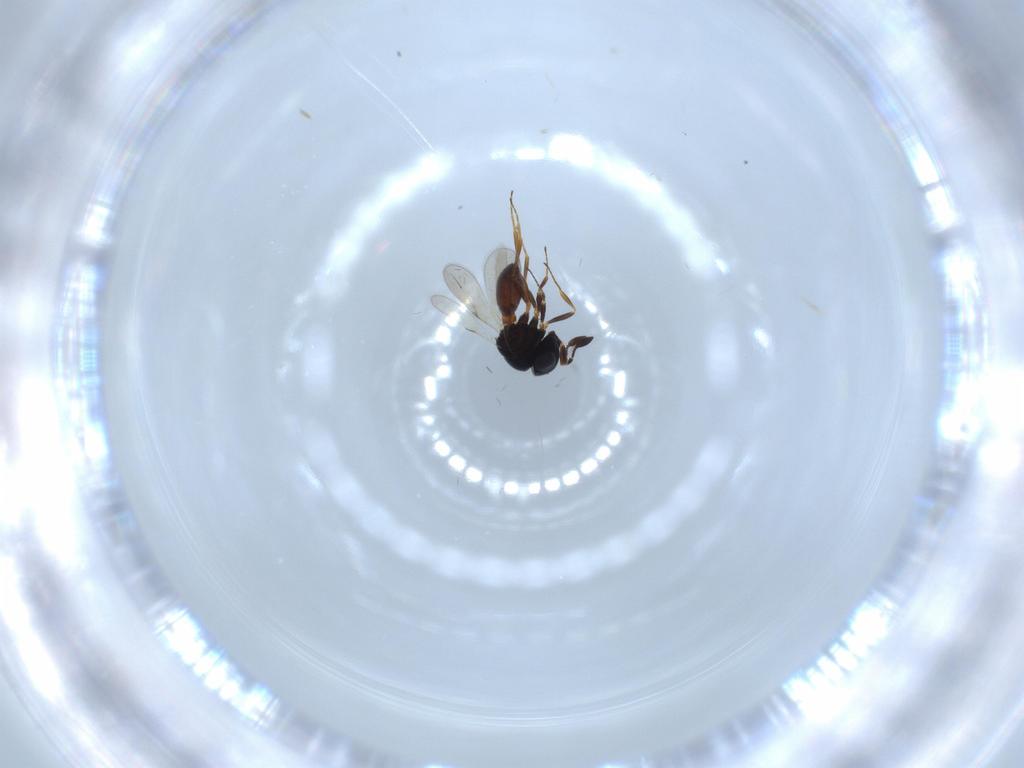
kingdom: Animalia
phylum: Arthropoda
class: Insecta
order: Hymenoptera
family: Scelionidae
